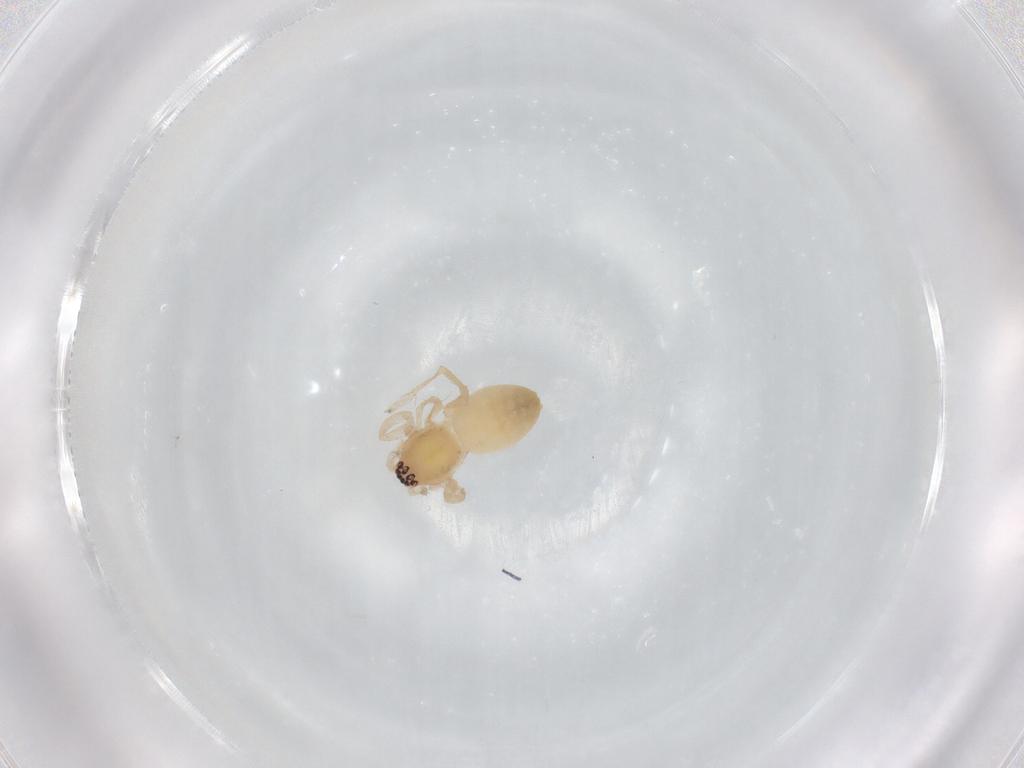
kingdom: Animalia
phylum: Arthropoda
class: Arachnida
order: Araneae
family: Anyphaenidae
